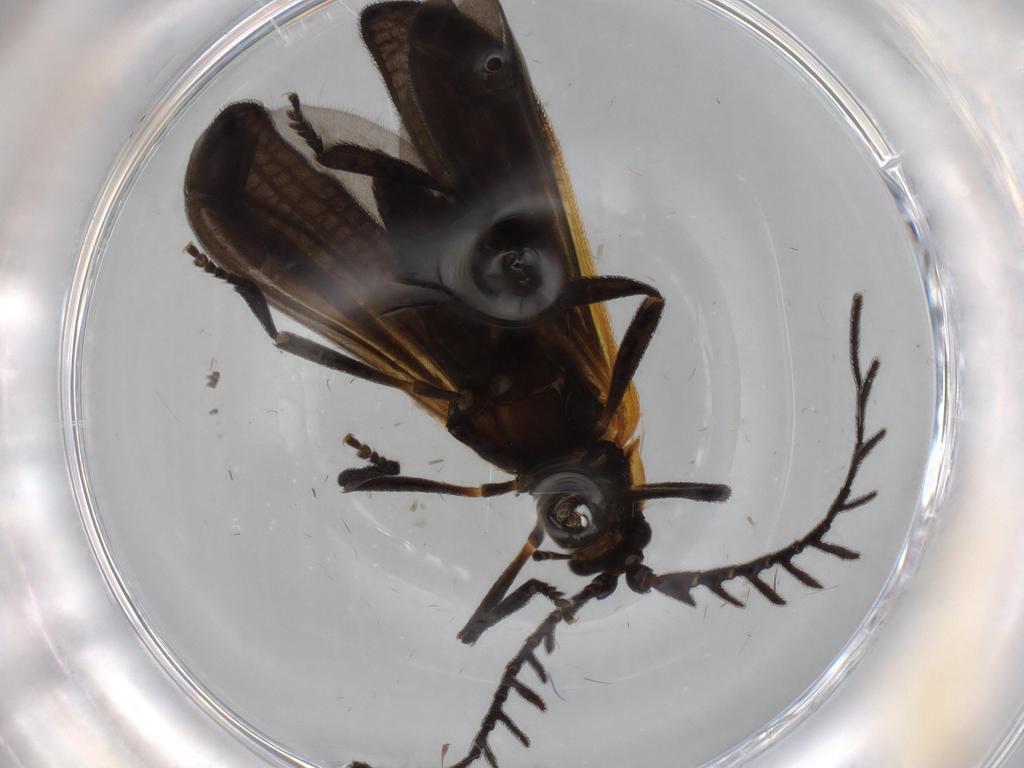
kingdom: Animalia
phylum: Arthropoda
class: Insecta
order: Coleoptera
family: Lycidae
